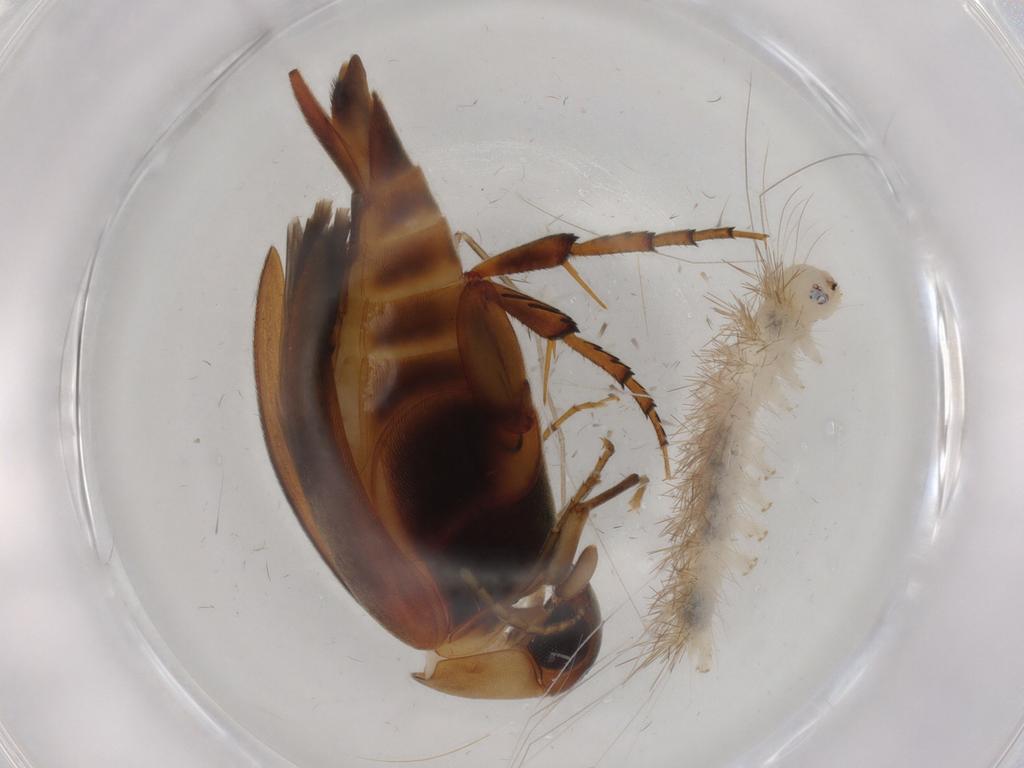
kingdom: Animalia
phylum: Arthropoda
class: Insecta
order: Coleoptera
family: Mordellidae
